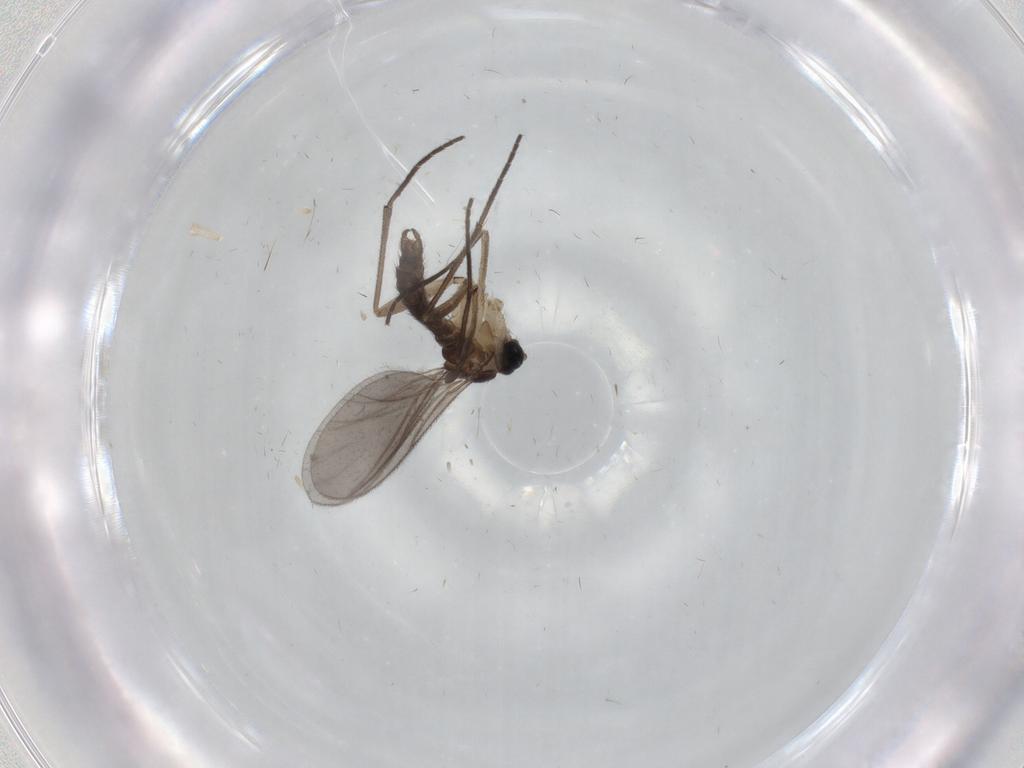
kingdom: Animalia
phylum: Arthropoda
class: Insecta
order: Diptera
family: Sciaridae
